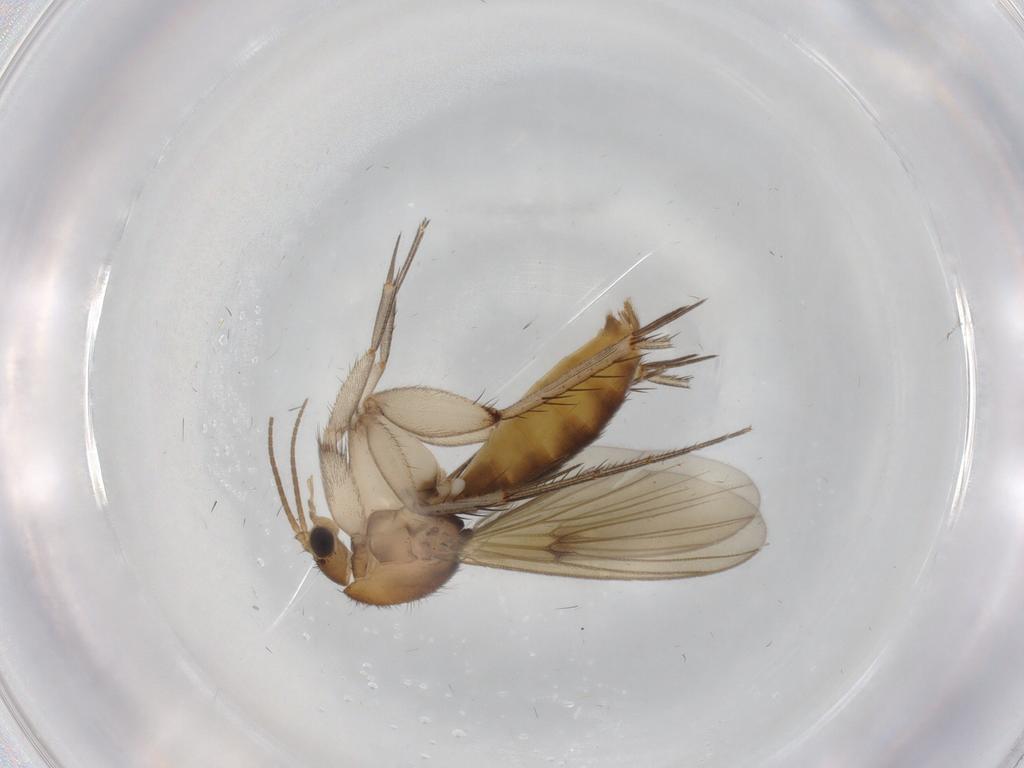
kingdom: Animalia
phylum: Arthropoda
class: Insecta
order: Diptera
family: Mycetophilidae
